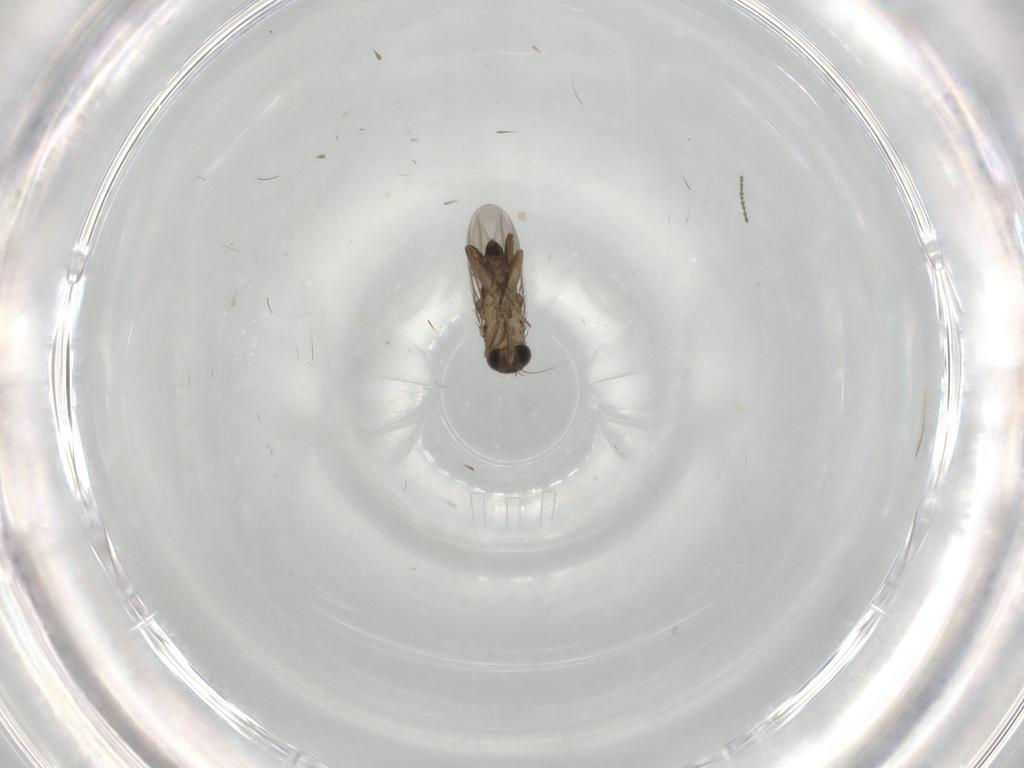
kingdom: Animalia
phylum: Arthropoda
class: Insecta
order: Diptera
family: Phoridae
